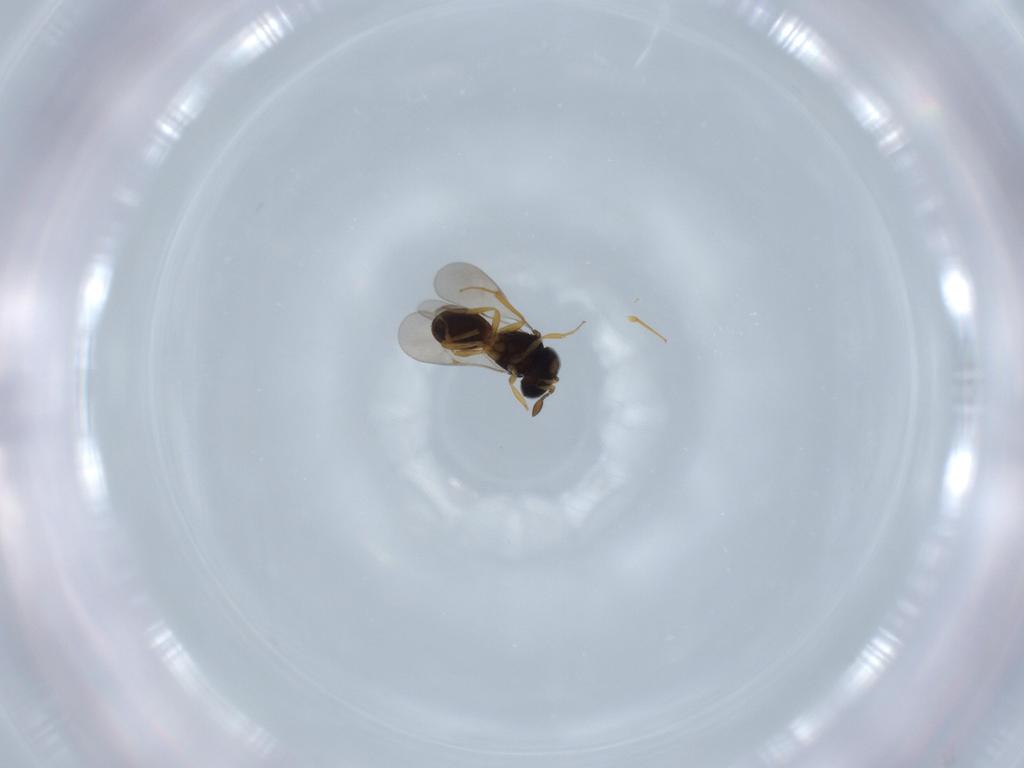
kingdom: Animalia
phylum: Arthropoda
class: Insecta
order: Hymenoptera
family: Scelionidae
